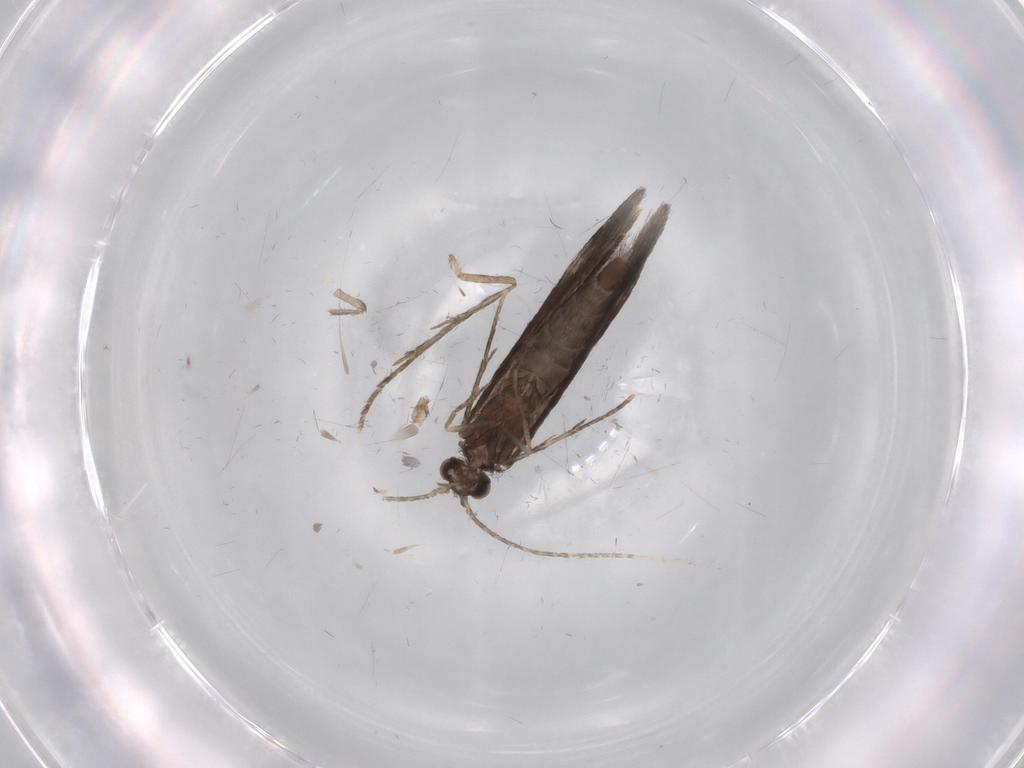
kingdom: Animalia
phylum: Arthropoda
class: Insecta
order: Trichoptera
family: Xiphocentronidae
